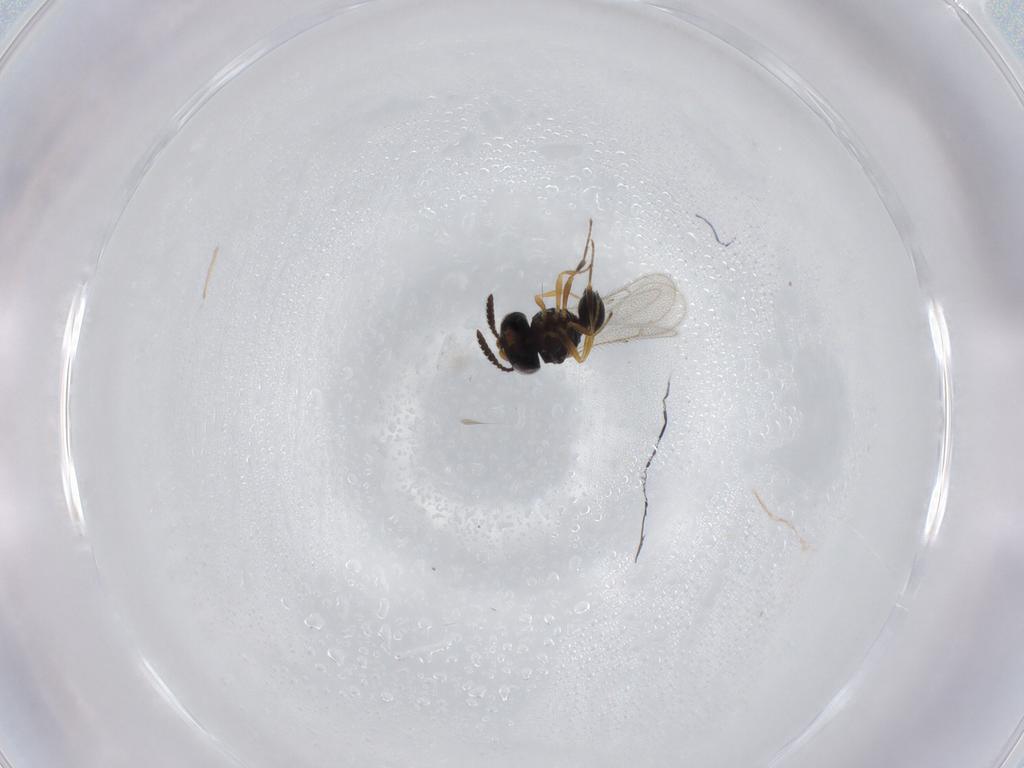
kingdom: Animalia
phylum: Arthropoda
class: Insecta
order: Hymenoptera
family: Scelionidae
